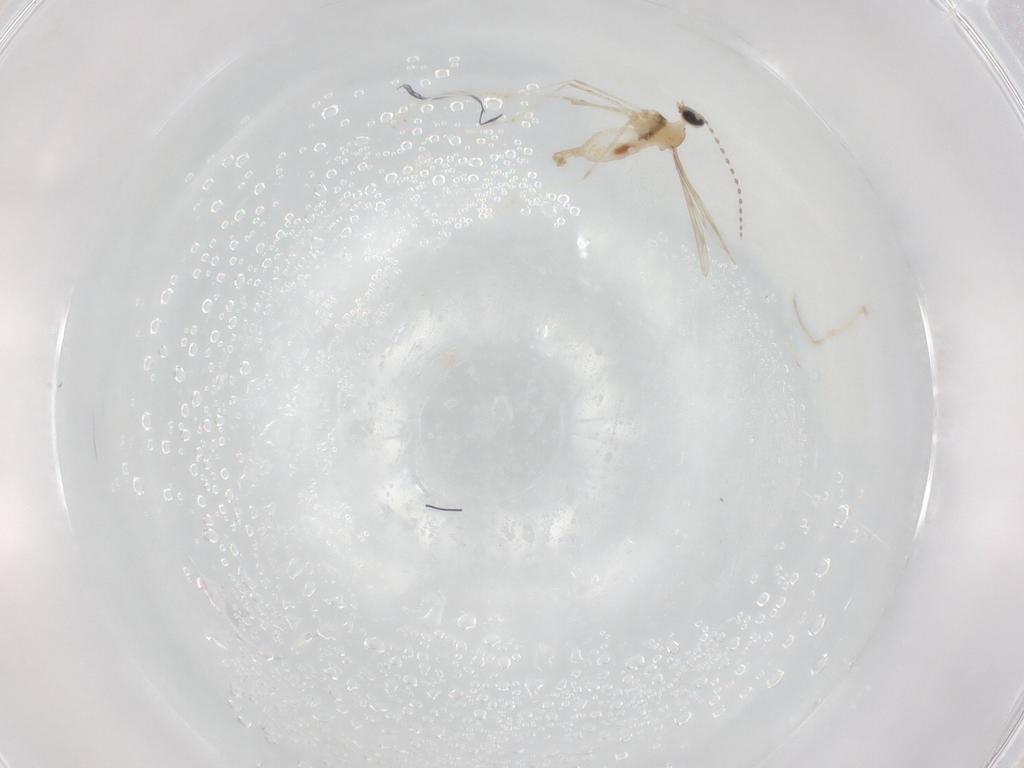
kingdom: Animalia
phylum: Arthropoda
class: Insecta
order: Diptera
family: Cecidomyiidae
